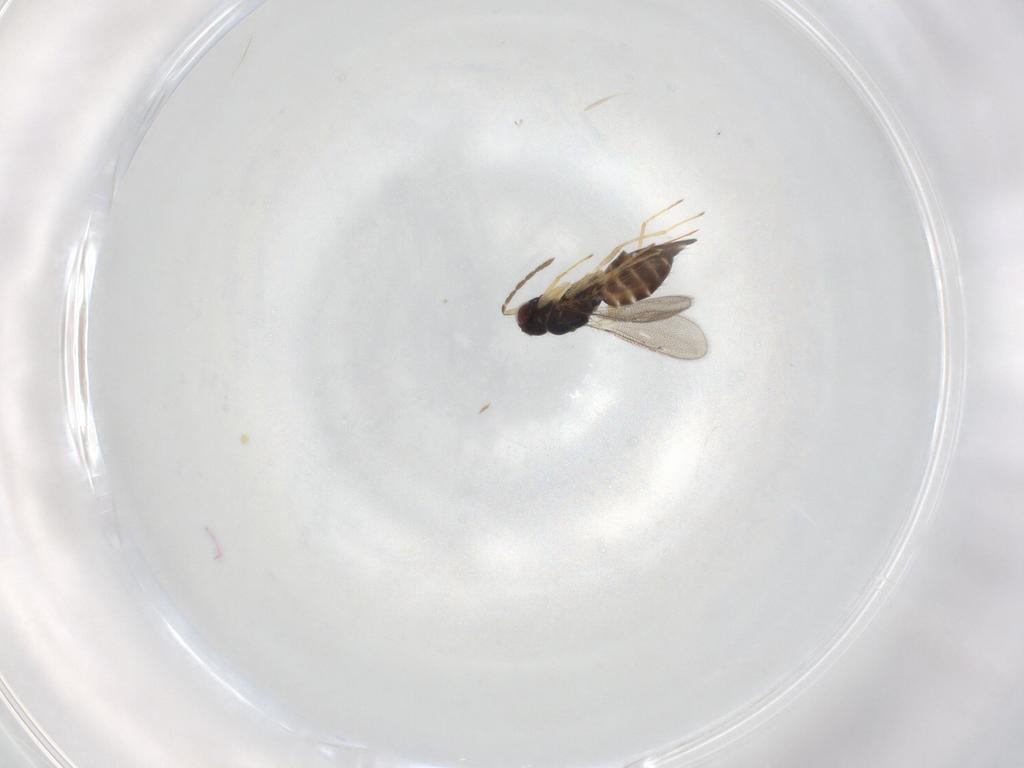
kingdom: Animalia
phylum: Arthropoda
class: Insecta
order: Hymenoptera
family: Eulophidae
